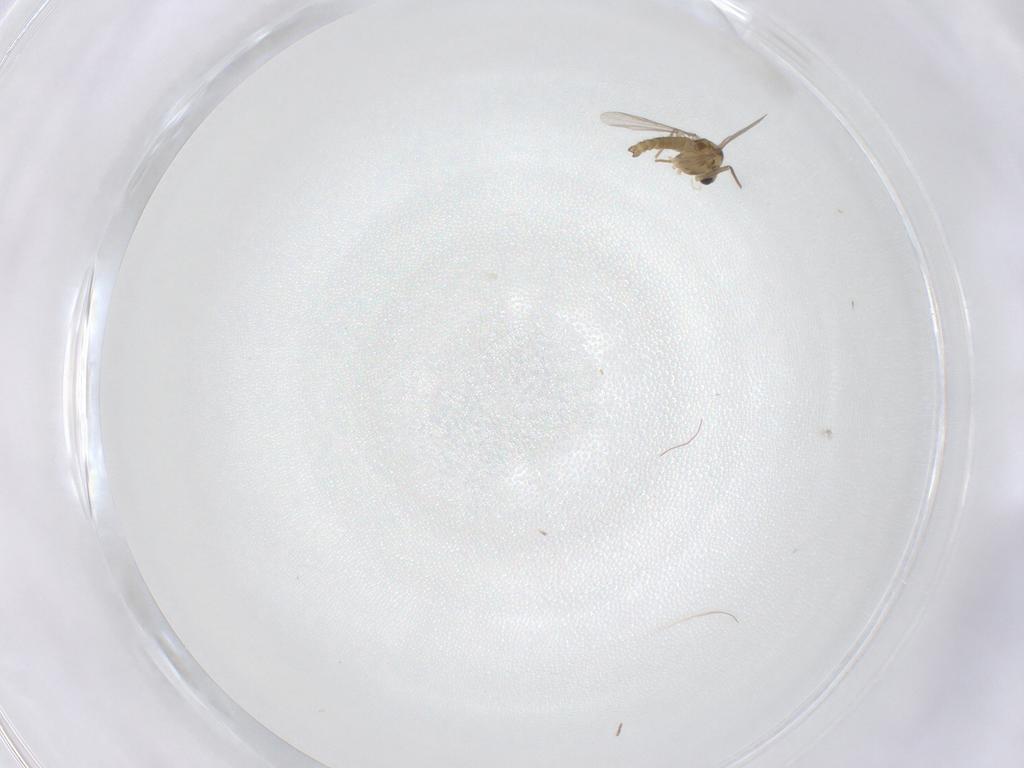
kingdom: Animalia
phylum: Arthropoda
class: Insecta
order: Diptera
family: Chironomidae
